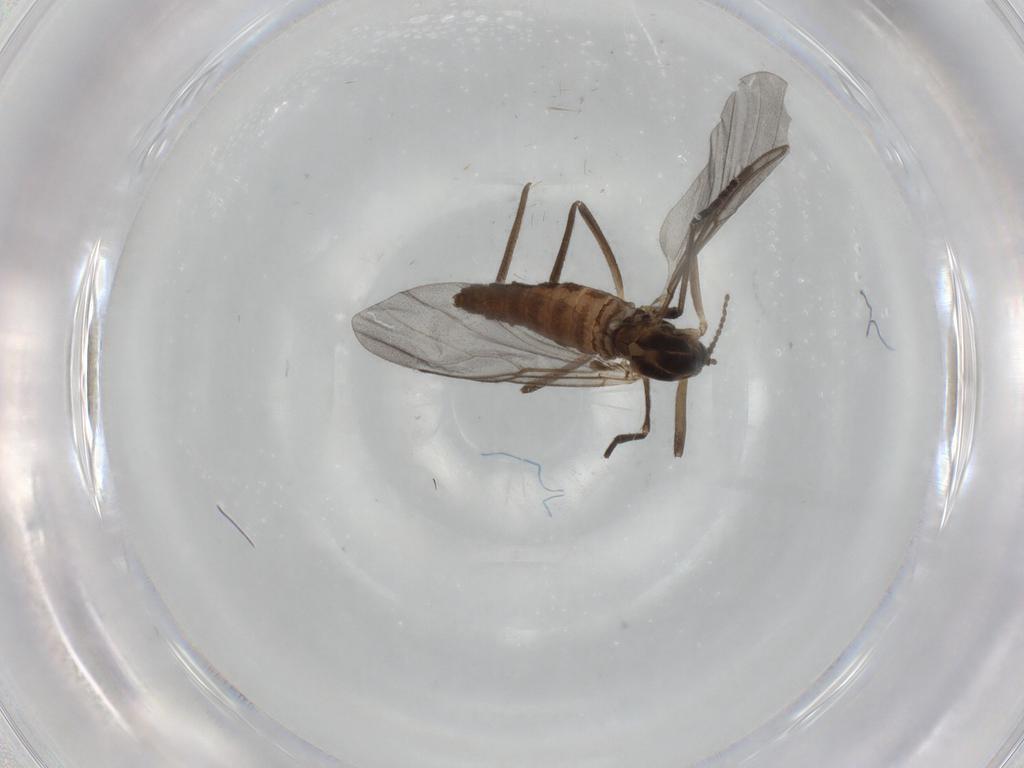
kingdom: Animalia
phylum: Arthropoda
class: Insecta
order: Diptera
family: Cecidomyiidae
